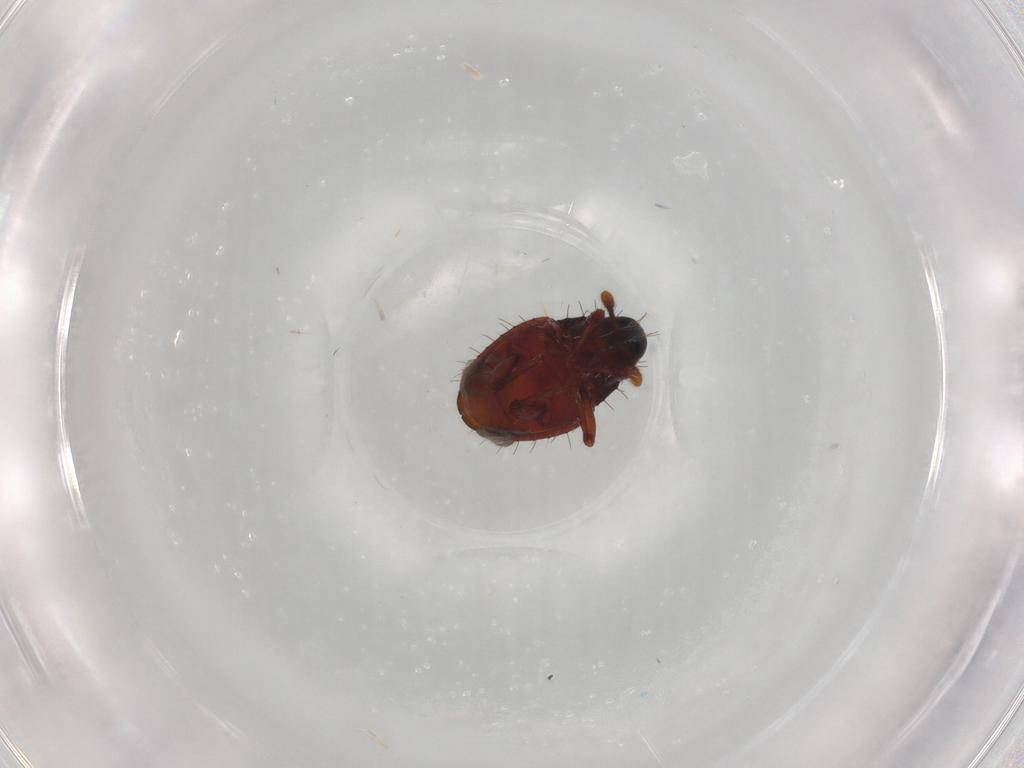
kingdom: Animalia
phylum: Arthropoda
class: Insecta
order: Coleoptera
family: Curculionidae
